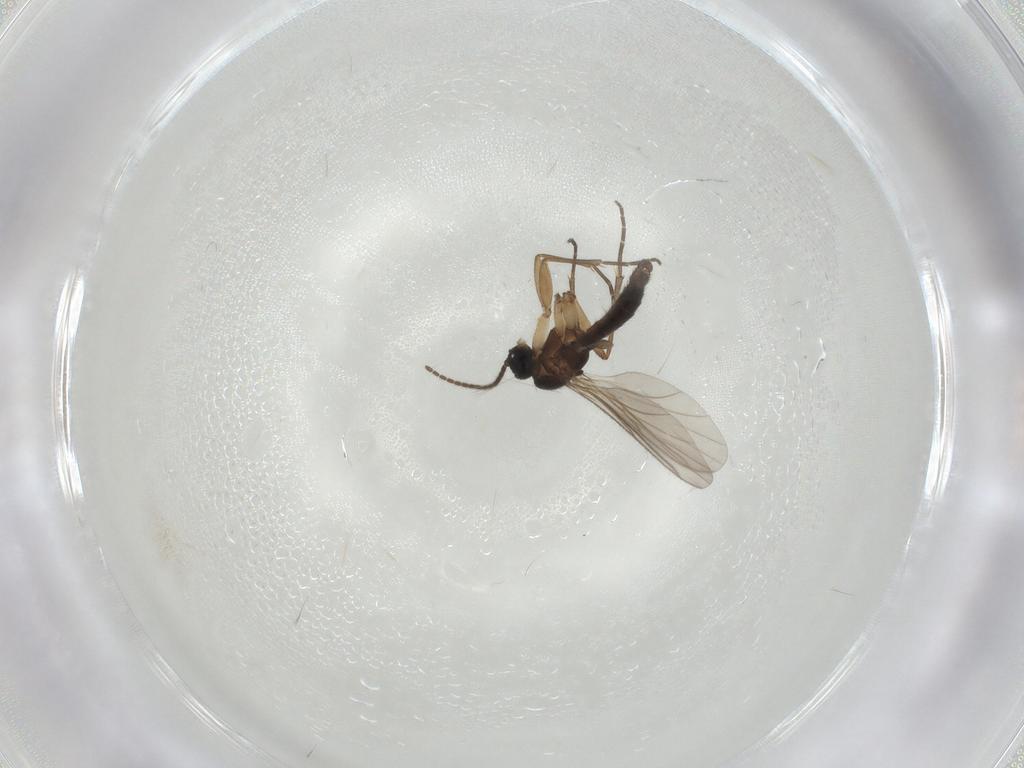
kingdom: Animalia
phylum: Arthropoda
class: Insecta
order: Diptera
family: Sciaridae
